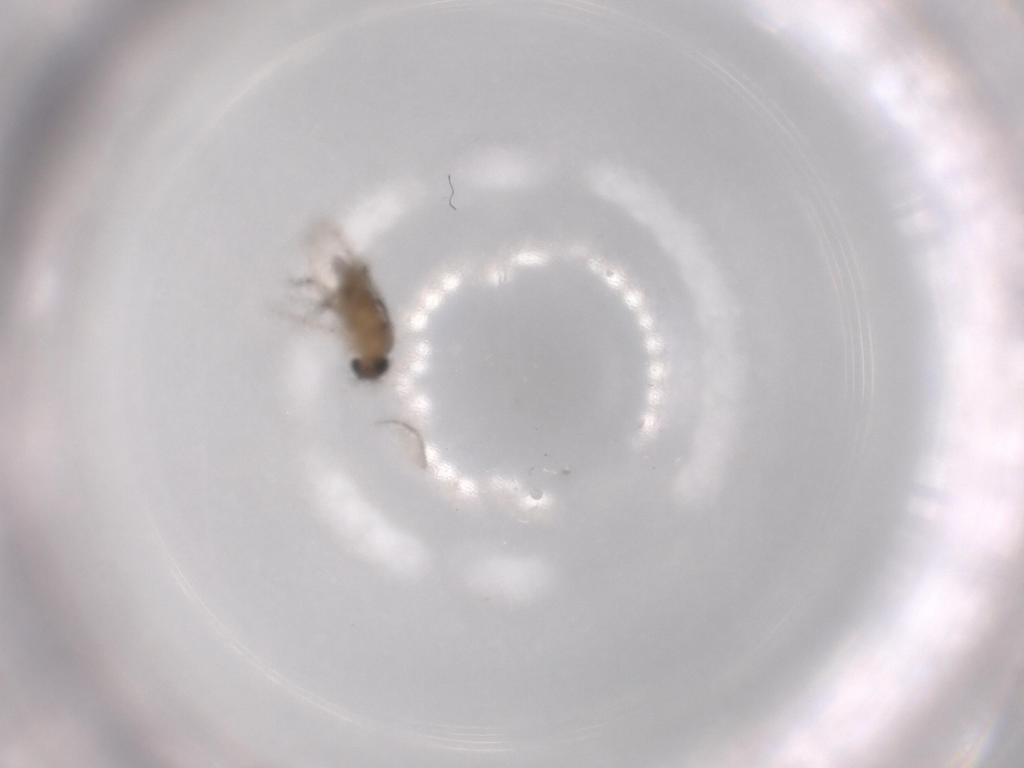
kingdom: Animalia
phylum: Arthropoda
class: Insecta
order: Diptera
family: Phoridae
